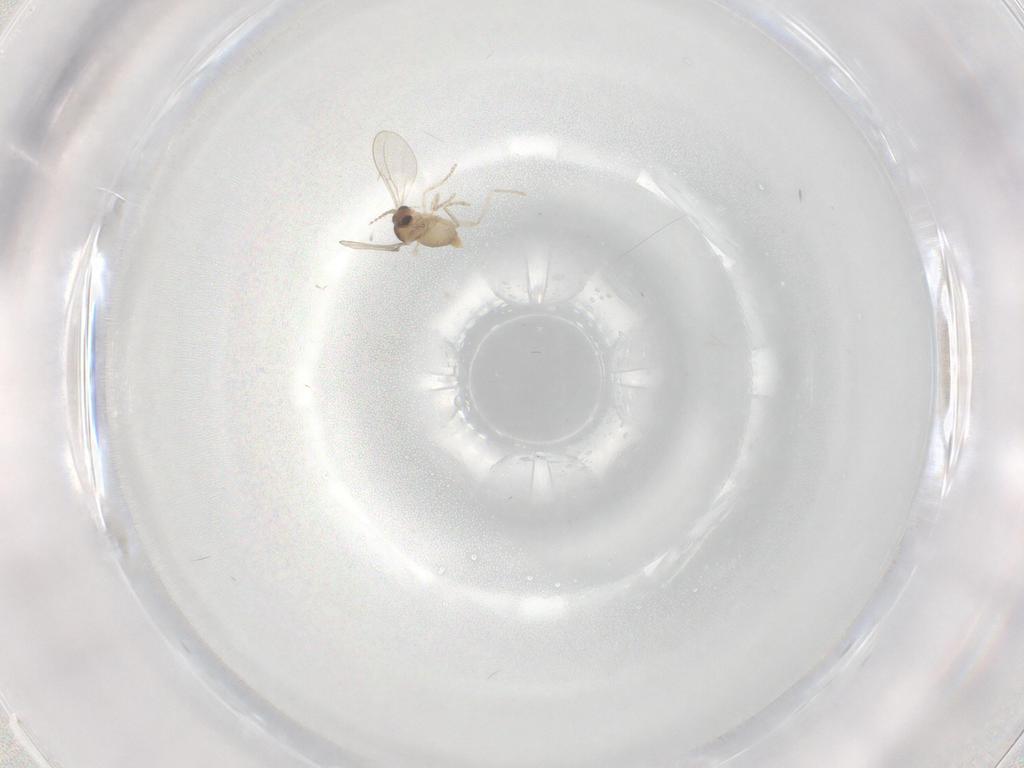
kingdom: Animalia
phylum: Arthropoda
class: Insecta
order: Diptera
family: Cecidomyiidae
